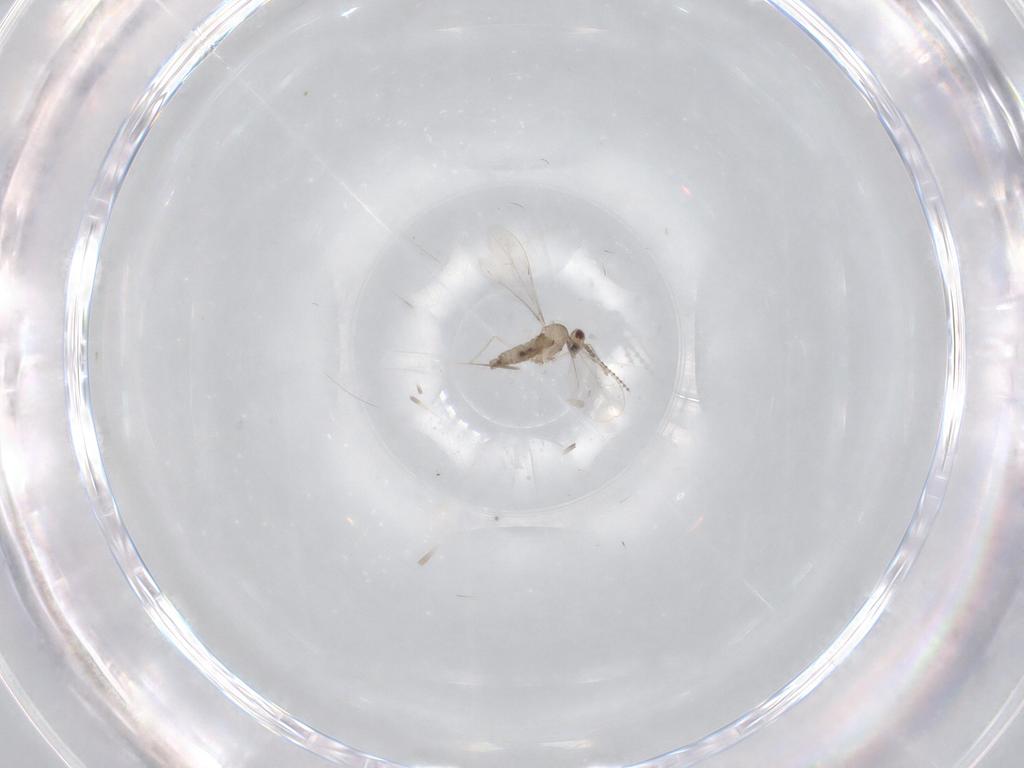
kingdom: Animalia
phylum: Arthropoda
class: Insecta
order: Diptera
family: Cecidomyiidae
